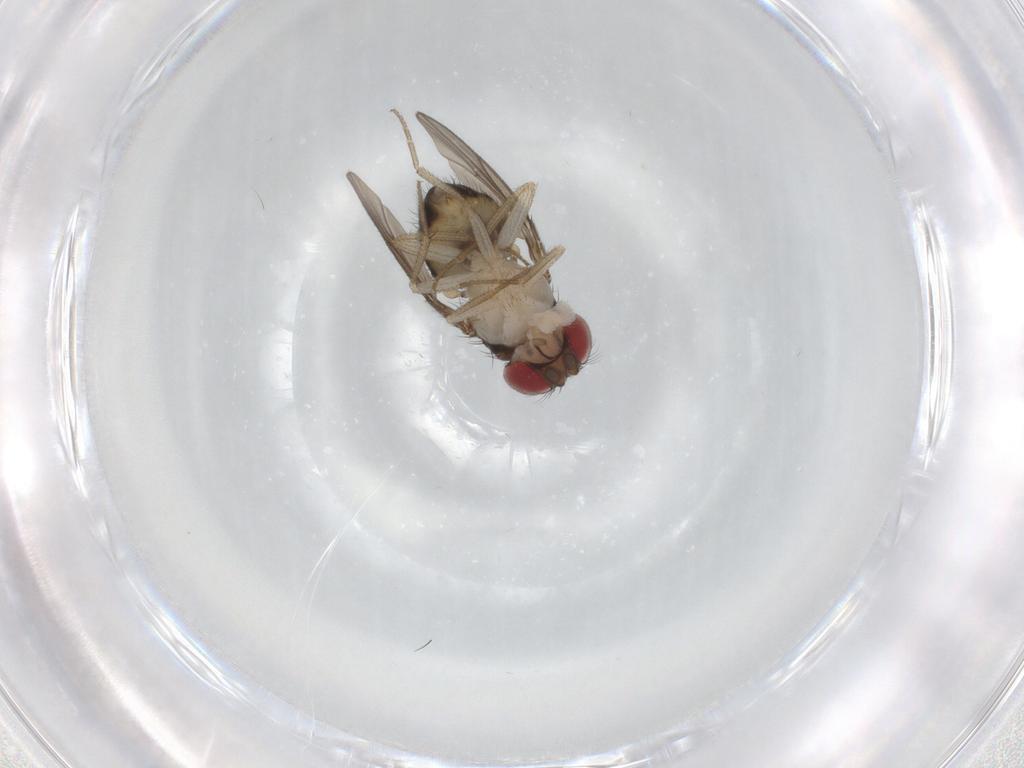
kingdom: Animalia
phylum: Arthropoda
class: Insecta
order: Diptera
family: Drosophilidae
